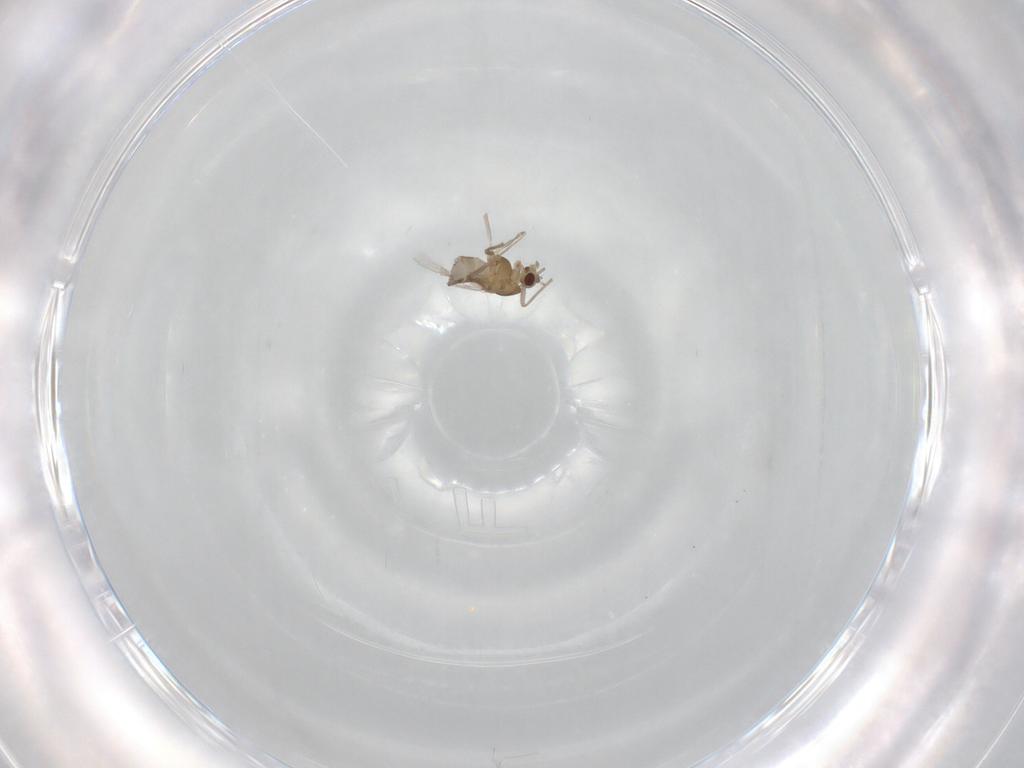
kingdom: Animalia
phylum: Arthropoda
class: Insecta
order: Diptera
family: Chironomidae
